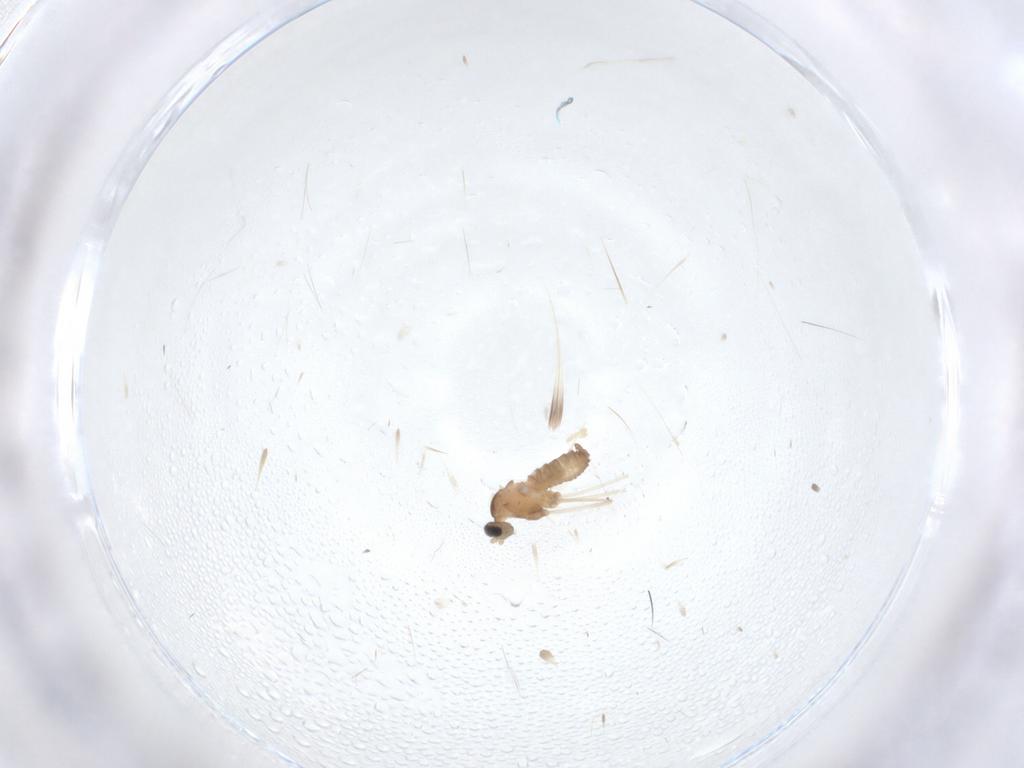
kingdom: Animalia
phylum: Arthropoda
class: Insecta
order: Diptera
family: Cecidomyiidae
